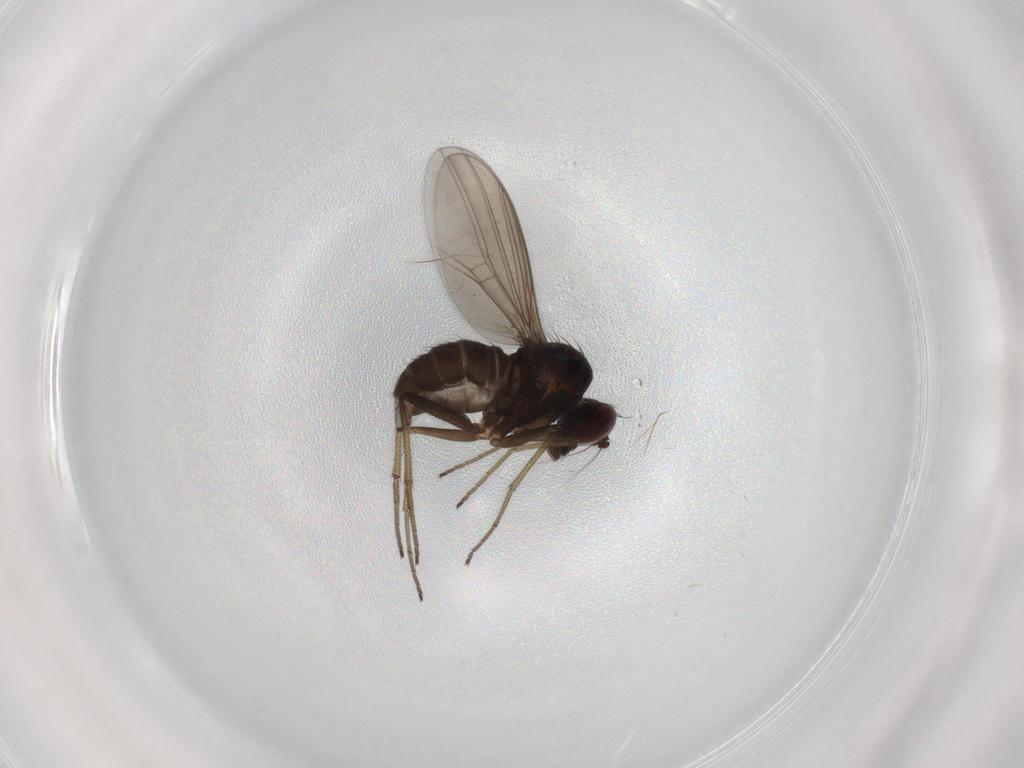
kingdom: Animalia
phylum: Arthropoda
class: Insecta
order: Diptera
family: Dolichopodidae
